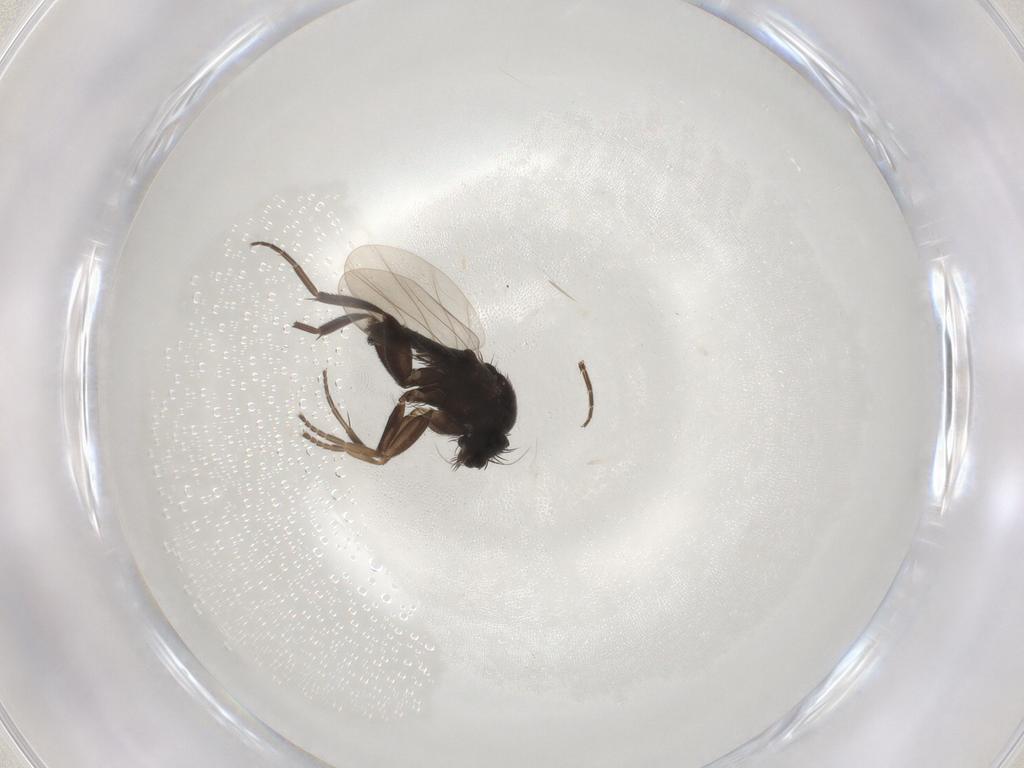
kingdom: Animalia
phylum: Arthropoda
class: Insecta
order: Diptera
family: Phoridae
